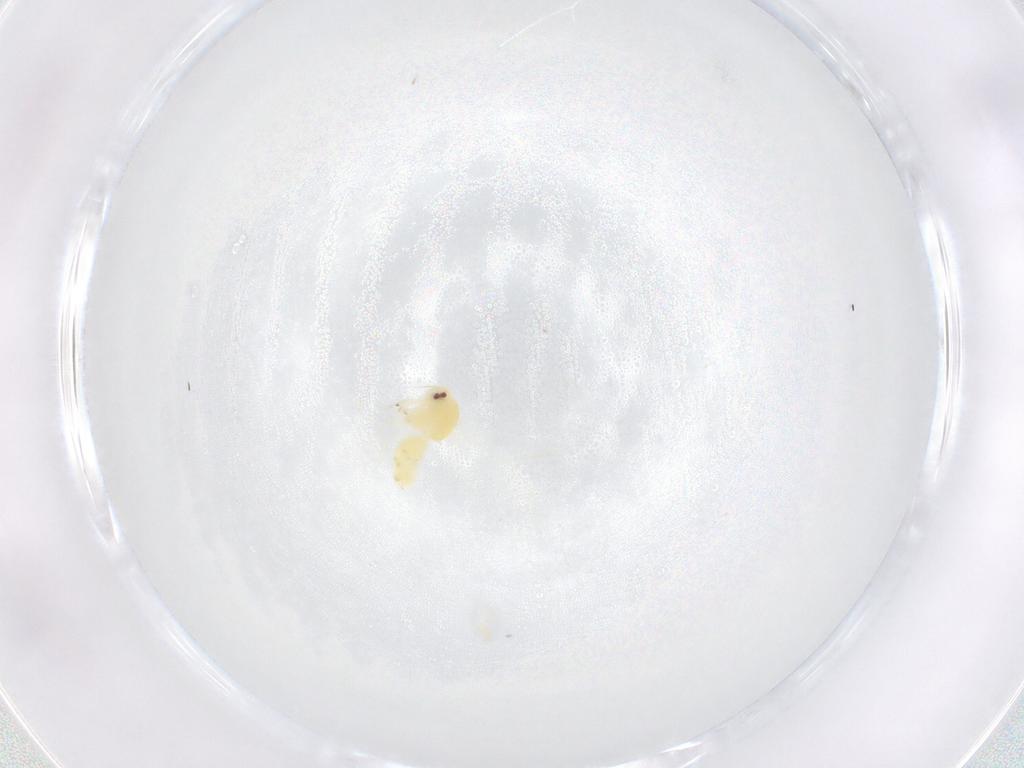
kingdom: Animalia
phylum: Arthropoda
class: Insecta
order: Hemiptera
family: Aleyrodidae
